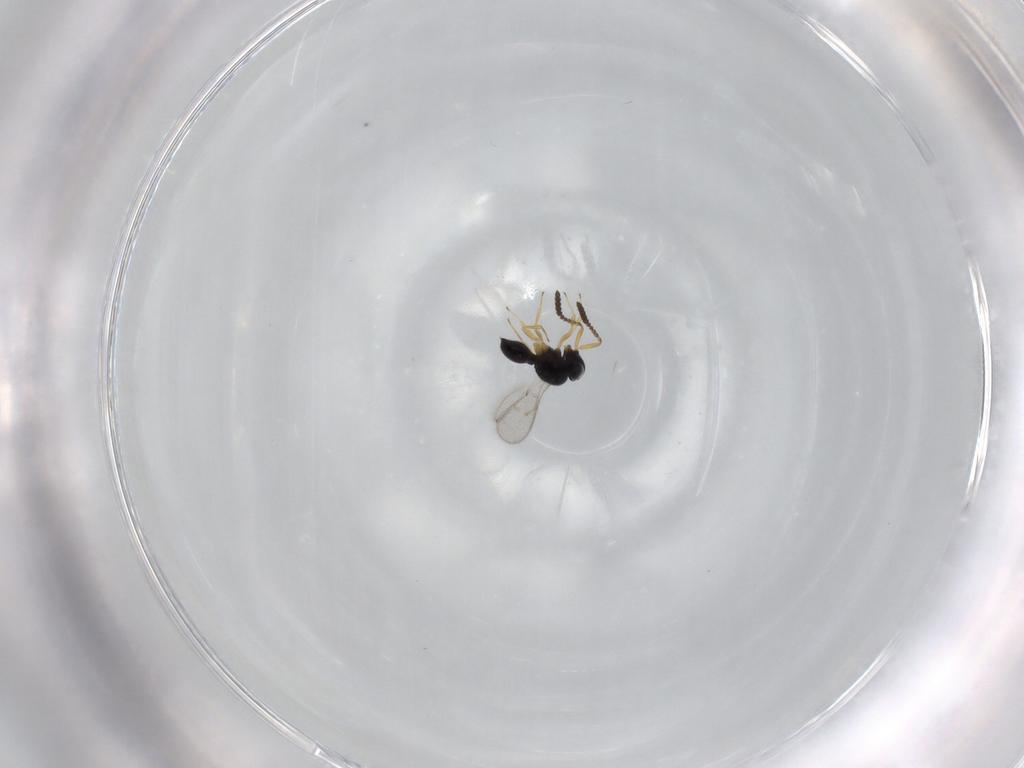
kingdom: Animalia
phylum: Arthropoda
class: Insecta
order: Hymenoptera
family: Scelionidae
